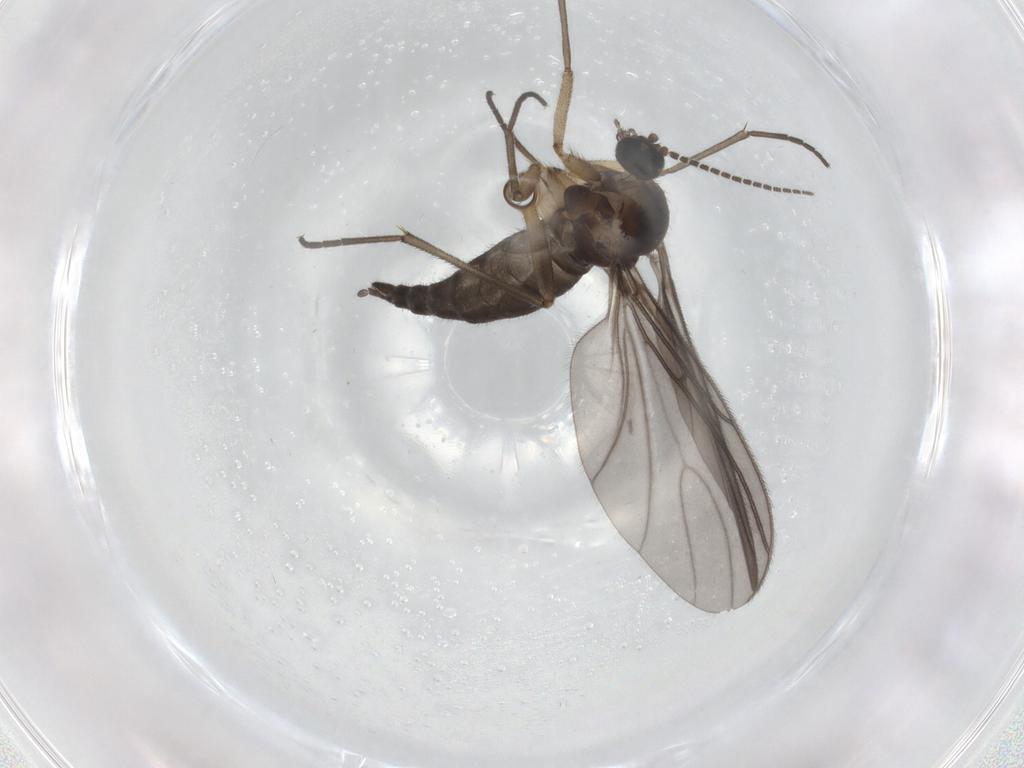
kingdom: Animalia
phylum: Arthropoda
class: Insecta
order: Diptera
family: Sciaridae
